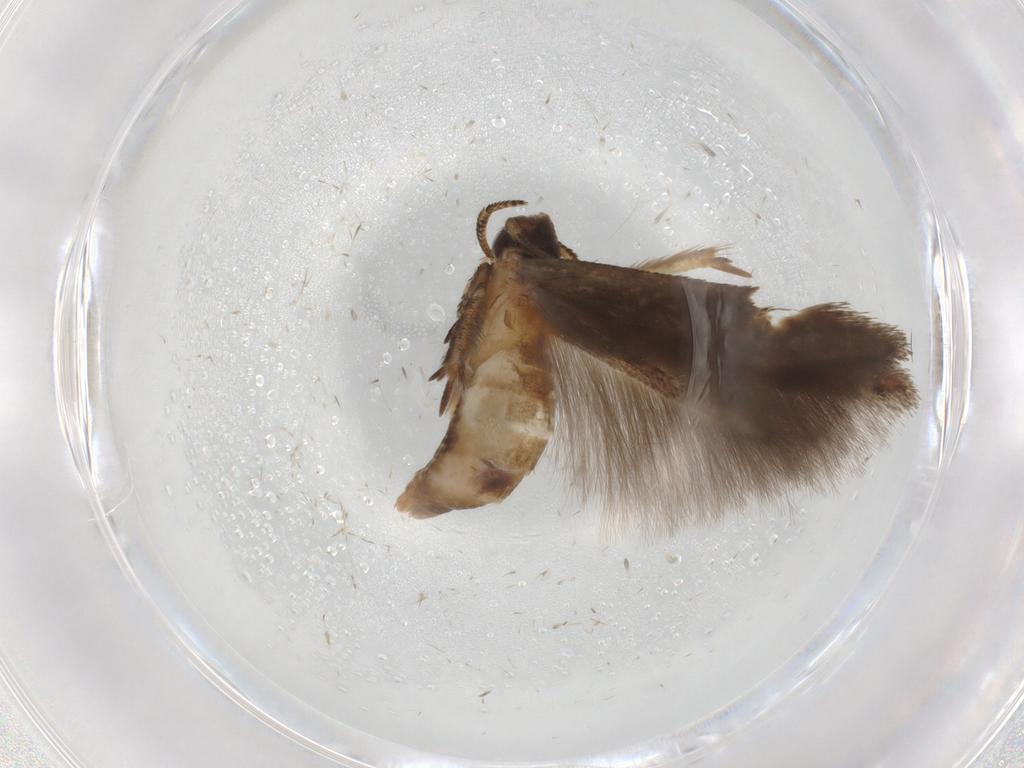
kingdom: Animalia
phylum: Arthropoda
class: Insecta
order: Lepidoptera
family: Cosmopterigidae
